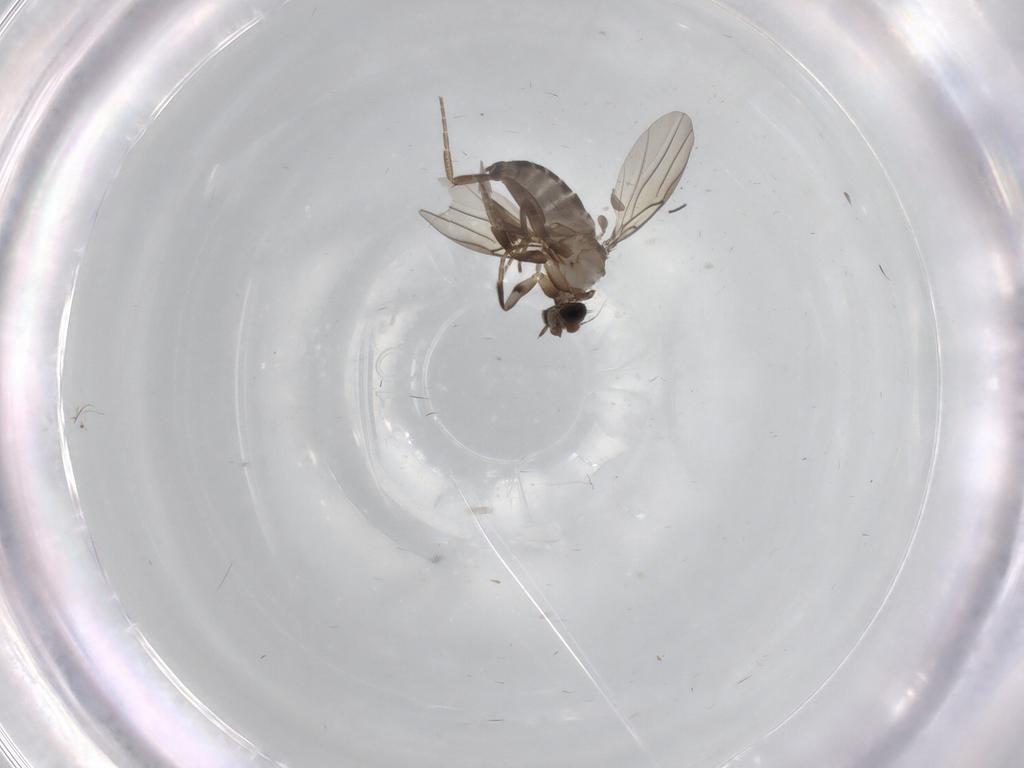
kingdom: Animalia
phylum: Arthropoda
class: Insecta
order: Diptera
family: Phoridae
